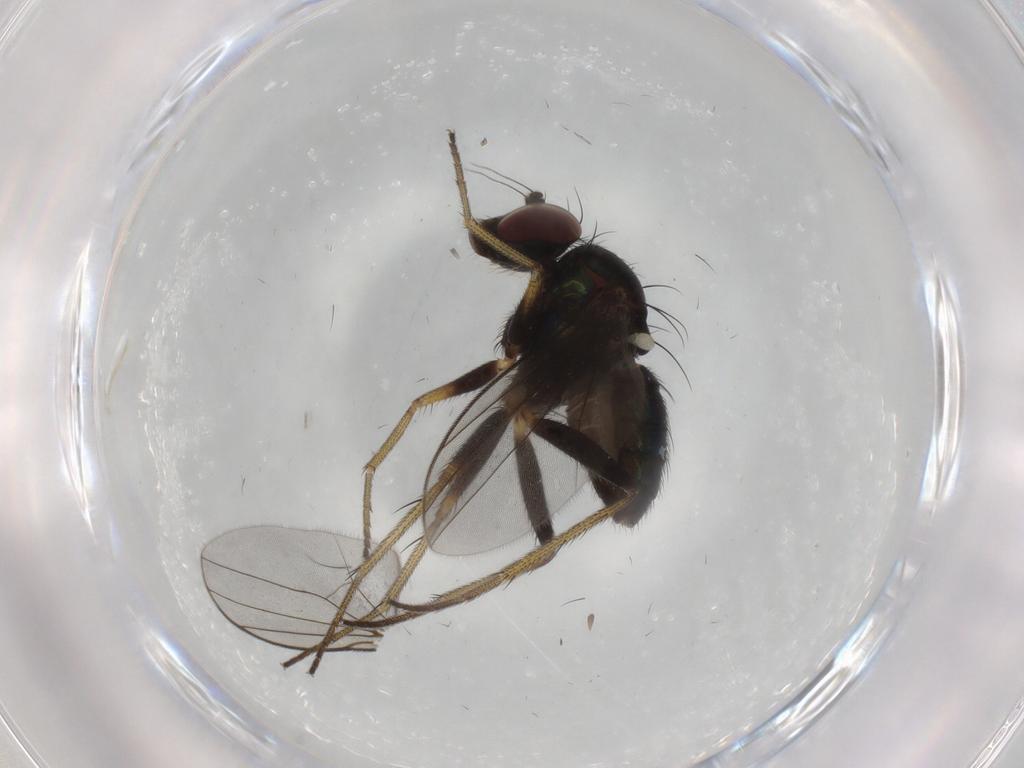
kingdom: Animalia
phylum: Arthropoda
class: Insecta
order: Diptera
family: Dolichopodidae
